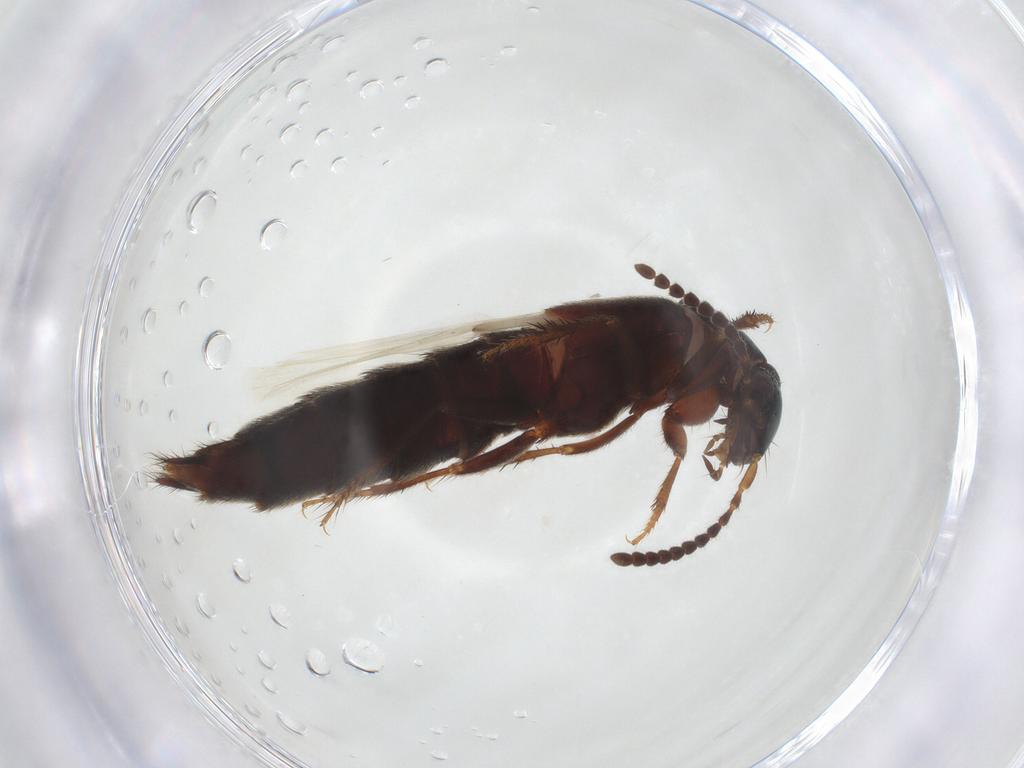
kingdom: Animalia
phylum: Arthropoda
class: Insecta
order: Coleoptera
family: Staphylinidae
